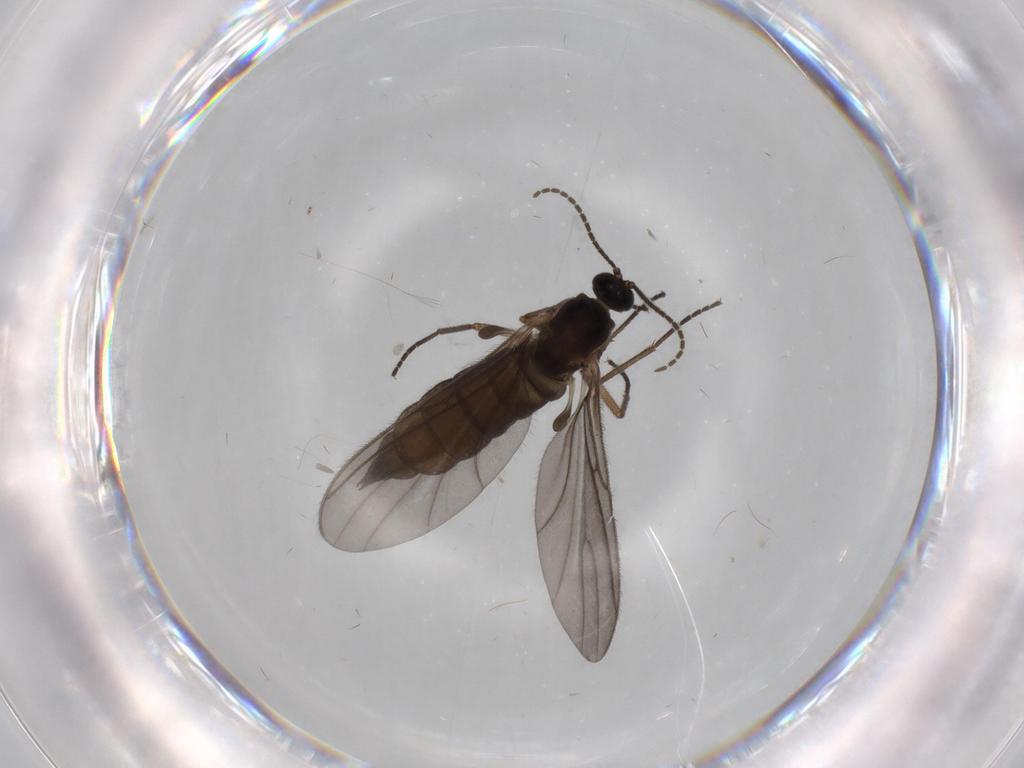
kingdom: Animalia
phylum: Arthropoda
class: Insecta
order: Diptera
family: Sciaridae
